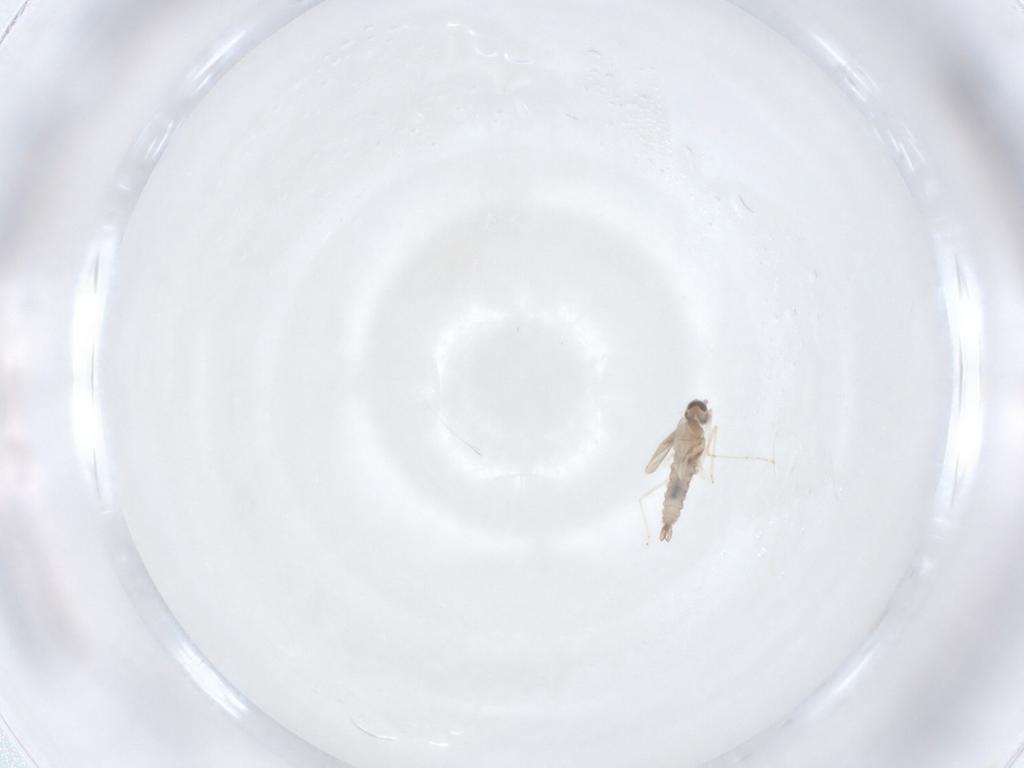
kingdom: Animalia
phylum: Arthropoda
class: Insecta
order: Diptera
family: Cecidomyiidae
